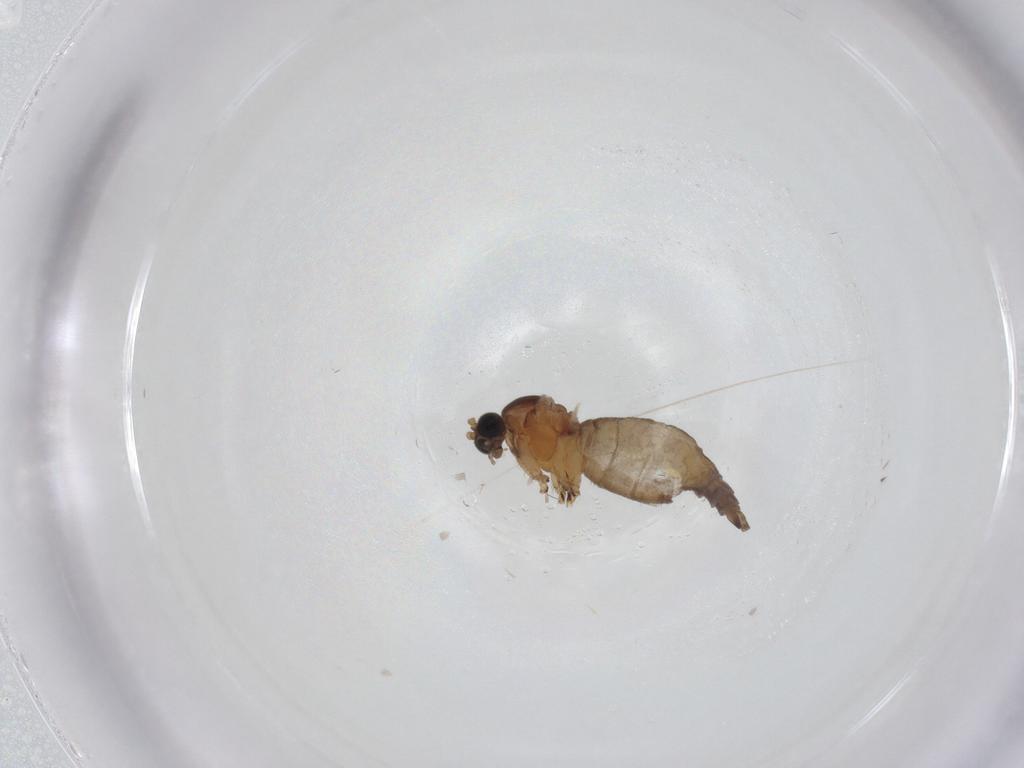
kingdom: Animalia
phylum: Arthropoda
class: Insecta
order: Diptera
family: Sciaridae
